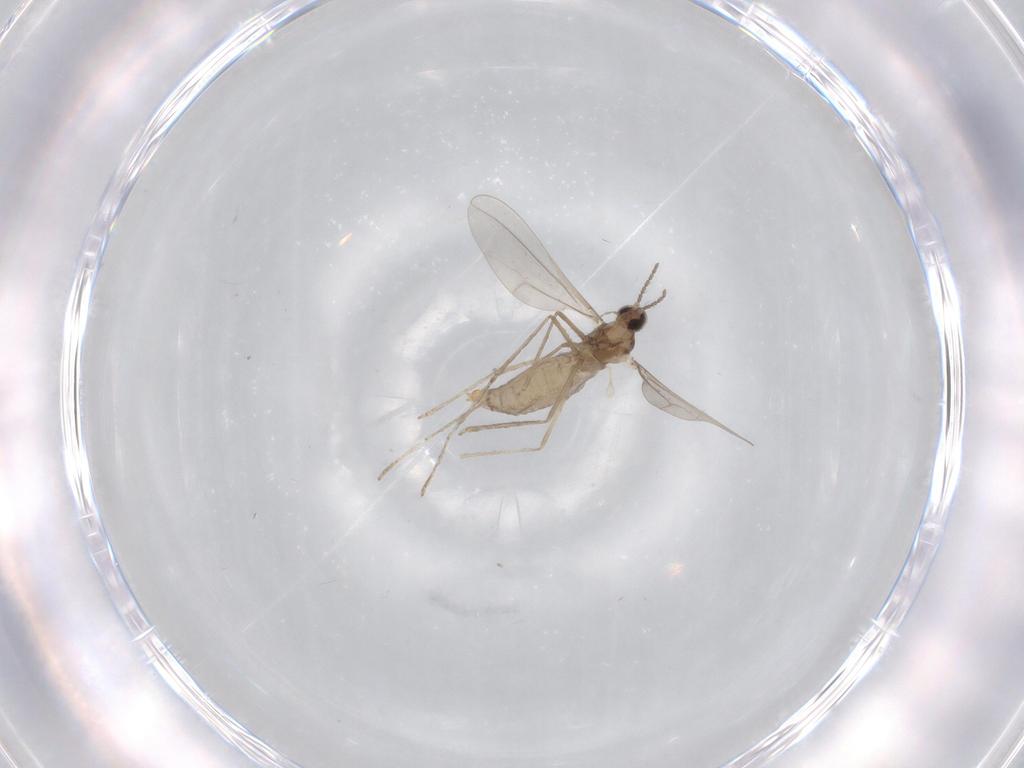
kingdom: Animalia
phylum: Arthropoda
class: Insecta
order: Diptera
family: Cecidomyiidae
